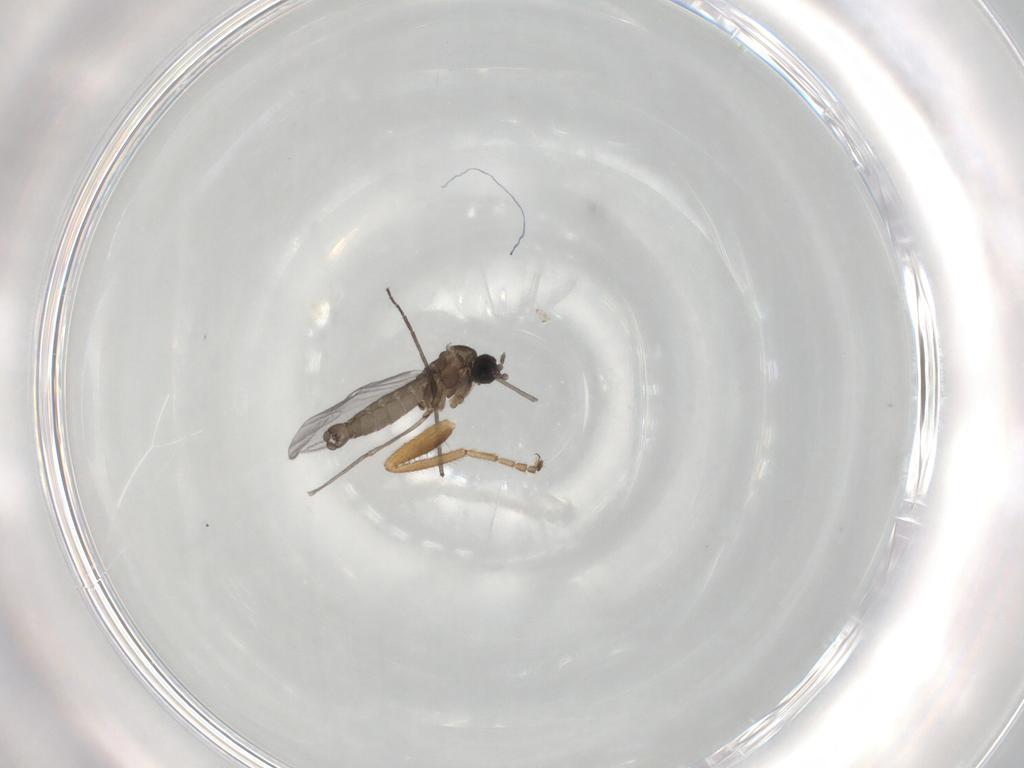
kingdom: Animalia
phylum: Arthropoda
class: Insecta
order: Diptera
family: Hybotidae
